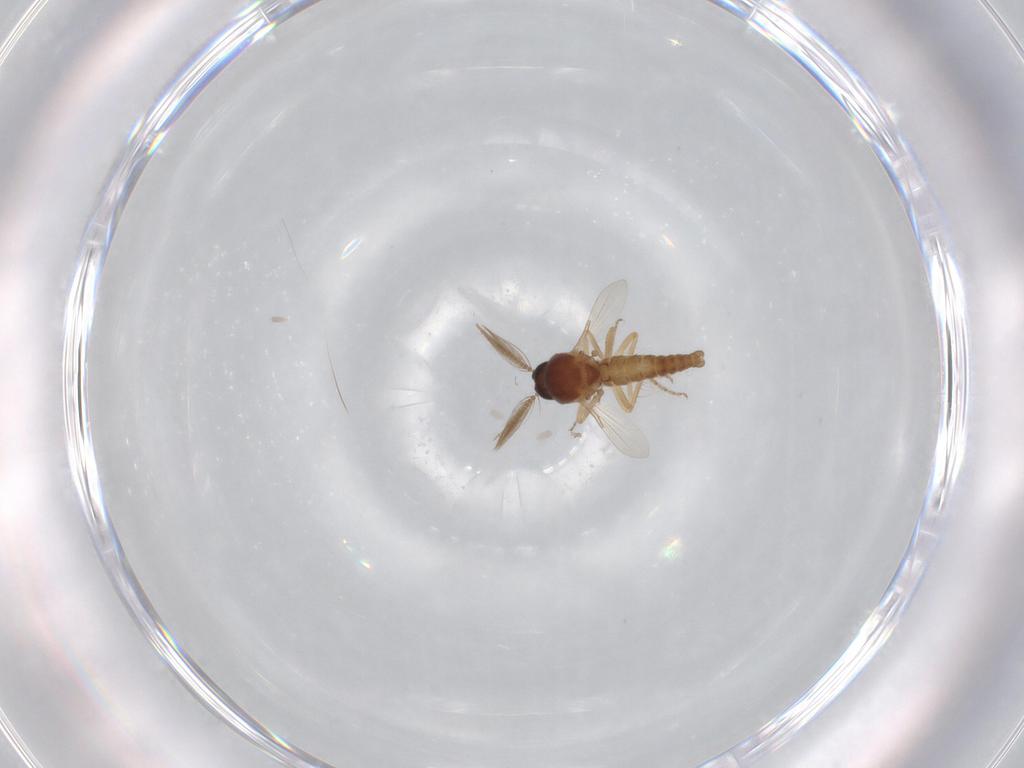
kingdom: Animalia
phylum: Arthropoda
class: Insecta
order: Diptera
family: Ceratopogonidae
